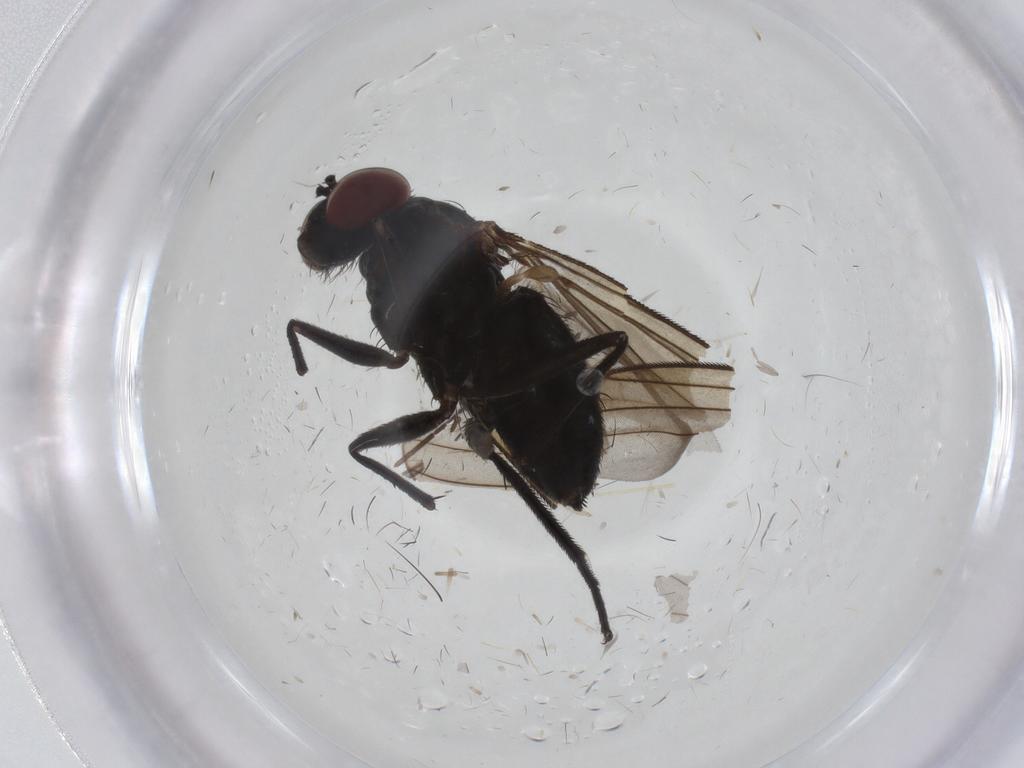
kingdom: Animalia
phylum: Arthropoda
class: Insecta
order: Diptera
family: Dolichopodidae
